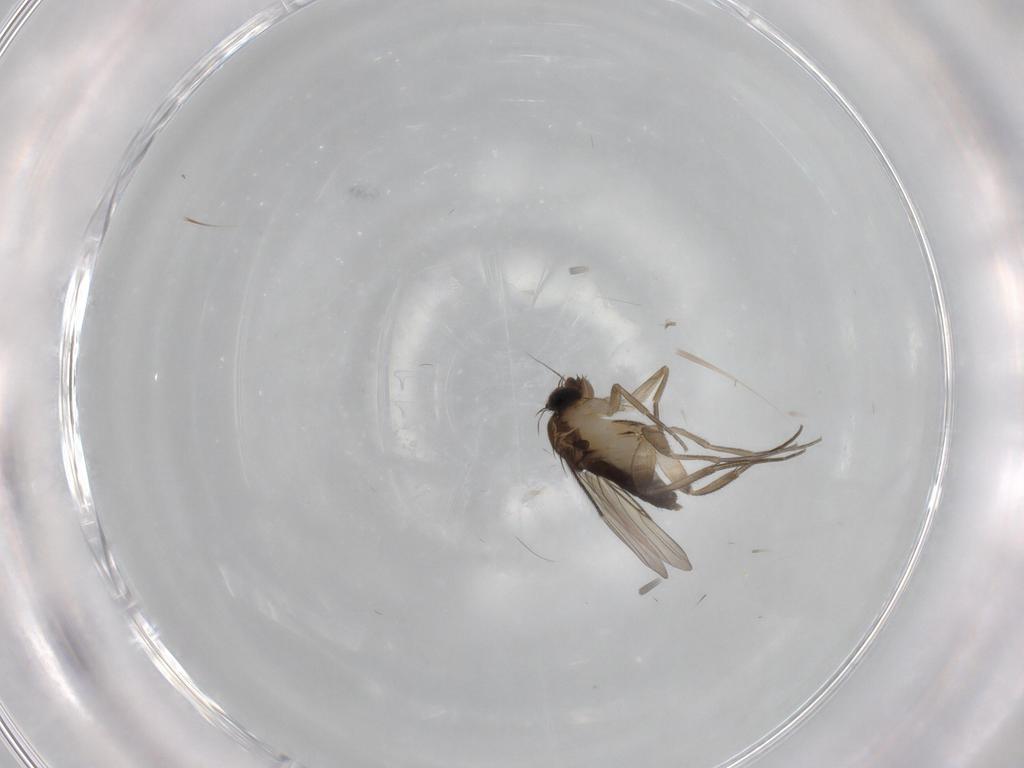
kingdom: Animalia
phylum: Arthropoda
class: Insecta
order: Diptera
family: Phoridae
